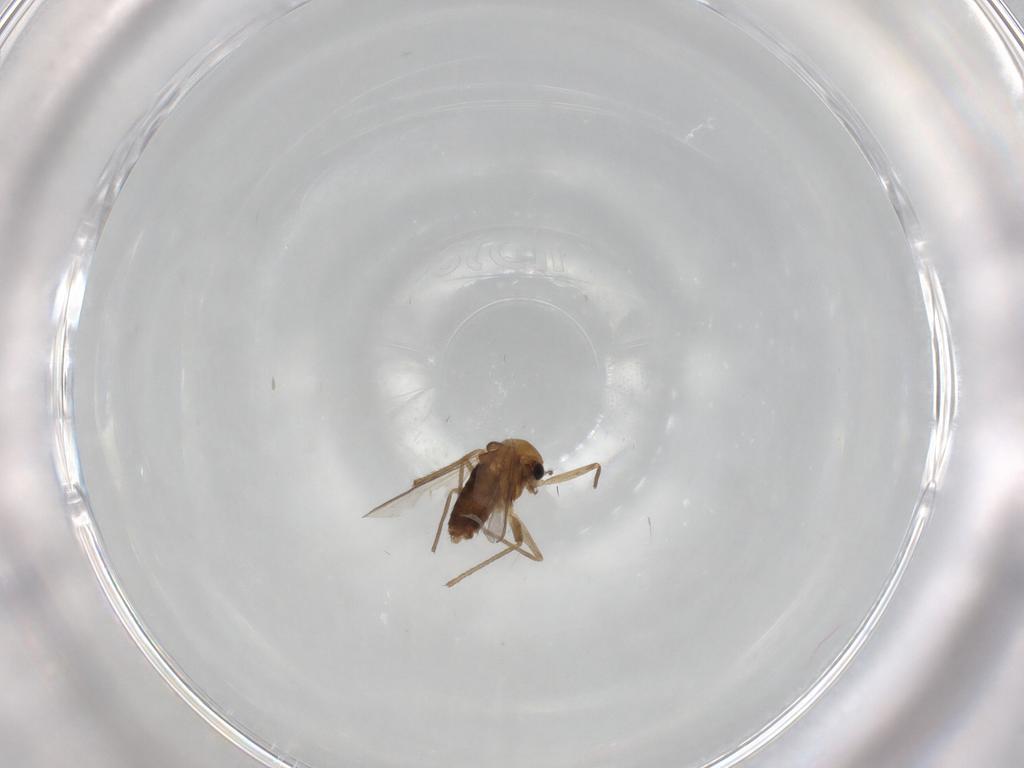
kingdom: Animalia
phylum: Arthropoda
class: Insecta
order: Diptera
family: Chironomidae
